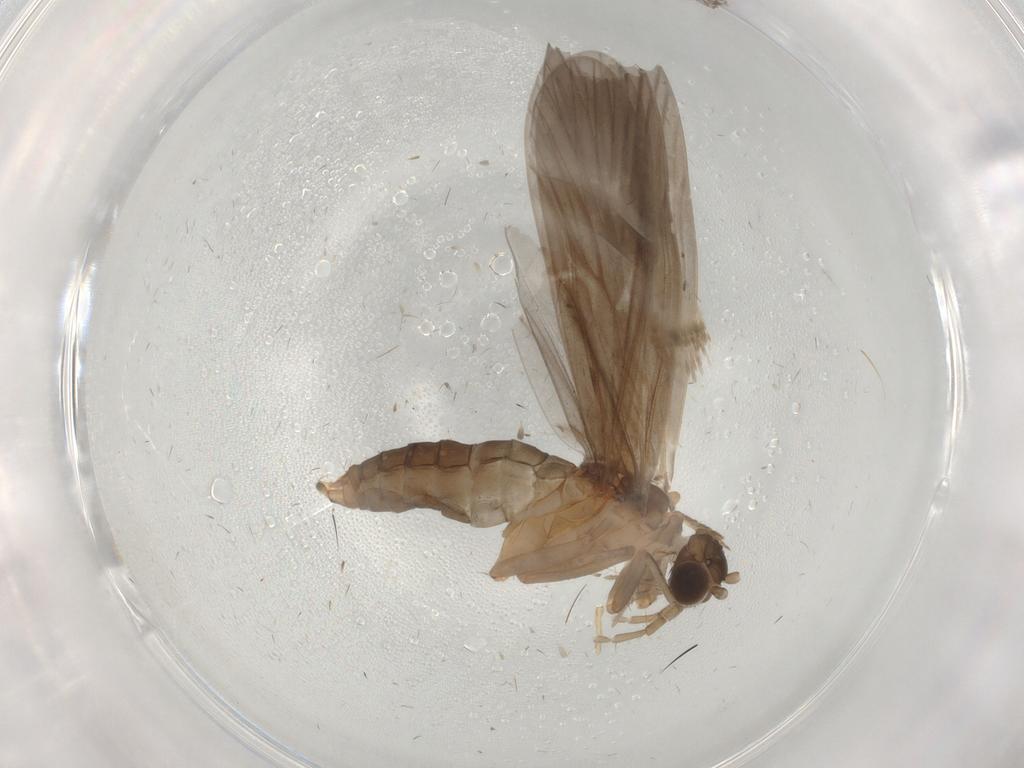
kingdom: Animalia
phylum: Arthropoda
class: Insecta
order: Trichoptera
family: Philopotamidae
